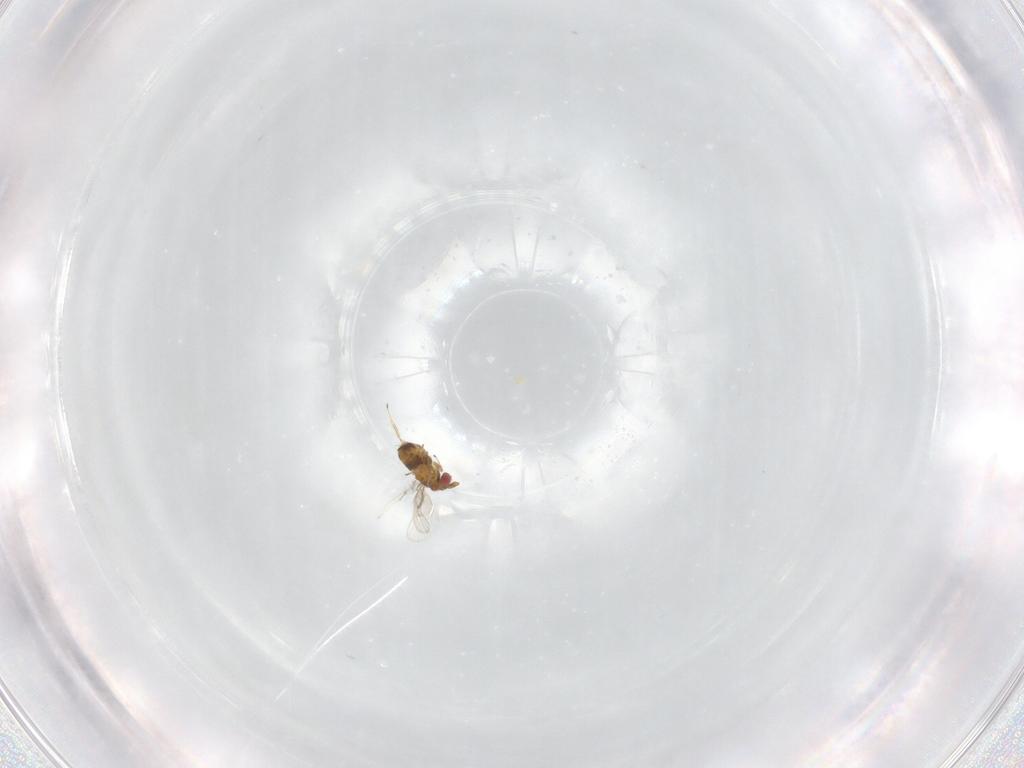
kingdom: Animalia
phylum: Arthropoda
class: Insecta
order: Hymenoptera
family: Trichogrammatidae
